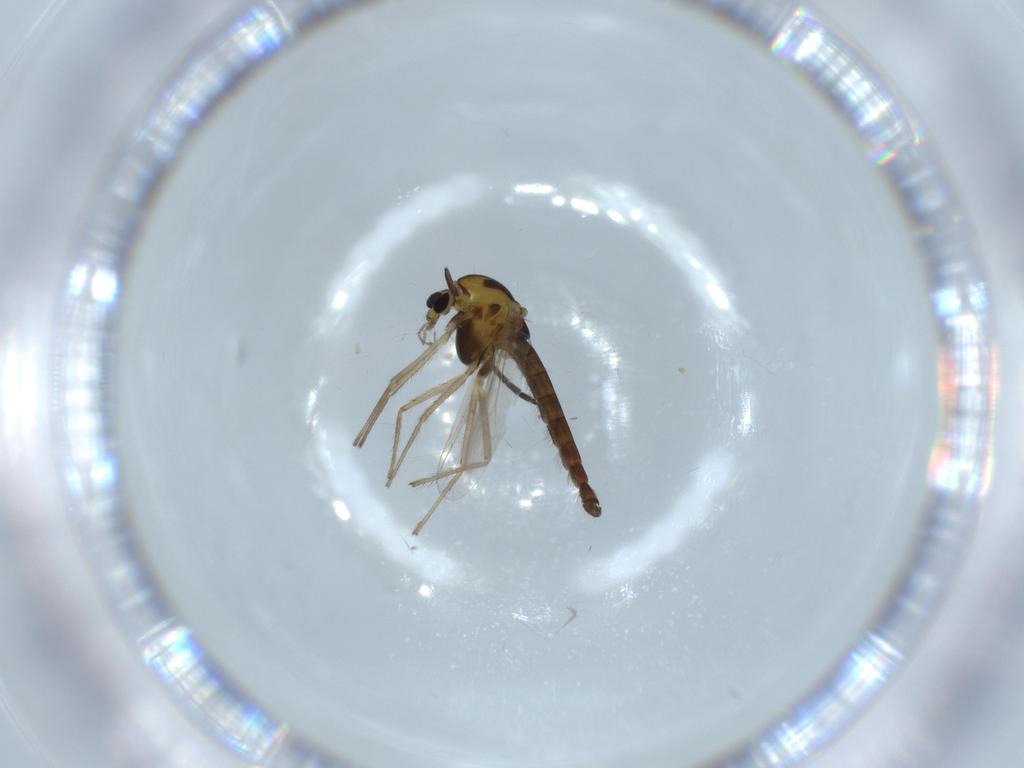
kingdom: Animalia
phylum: Arthropoda
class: Insecta
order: Diptera
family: Chironomidae
